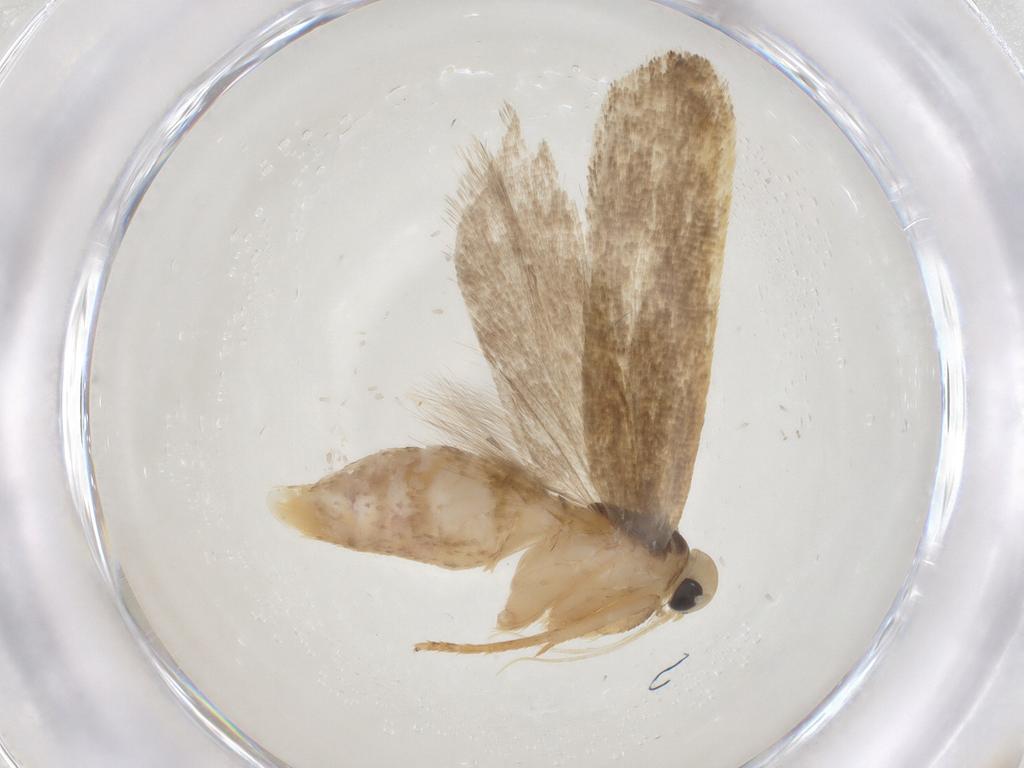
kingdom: Animalia
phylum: Arthropoda
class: Insecta
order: Lepidoptera
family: Gelechiidae
